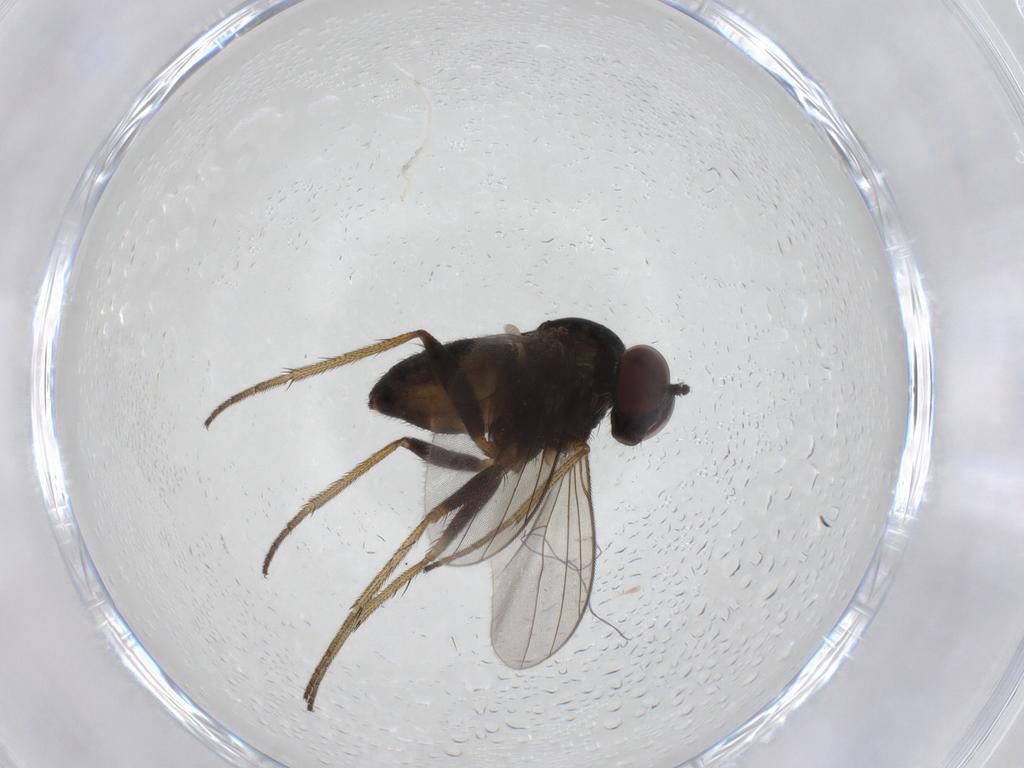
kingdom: Animalia
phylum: Arthropoda
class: Insecta
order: Diptera
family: Dolichopodidae
